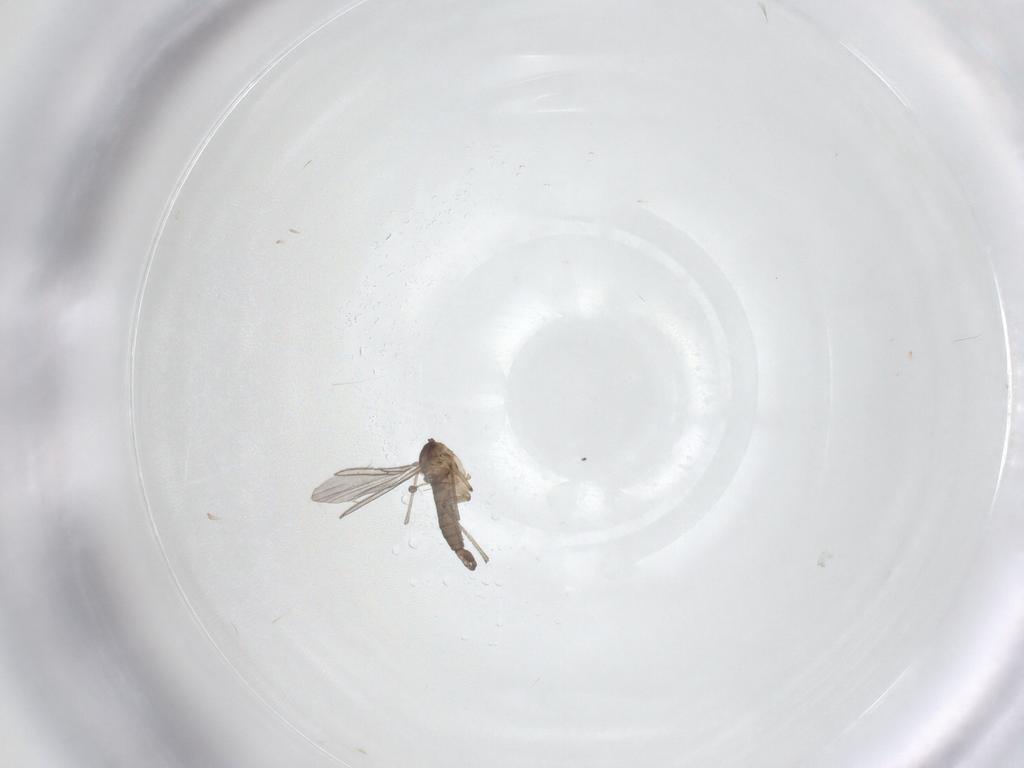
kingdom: Animalia
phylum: Arthropoda
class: Insecta
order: Diptera
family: Sciaridae
